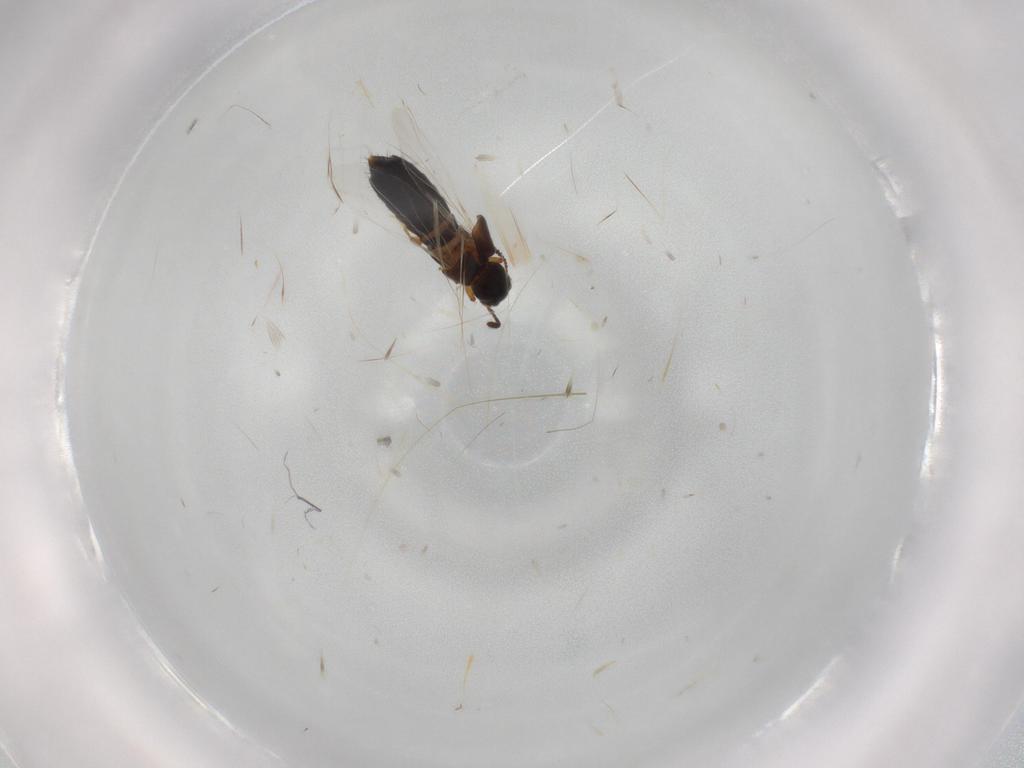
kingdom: Animalia
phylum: Arthropoda
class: Insecta
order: Coleoptera
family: Staphylinidae
